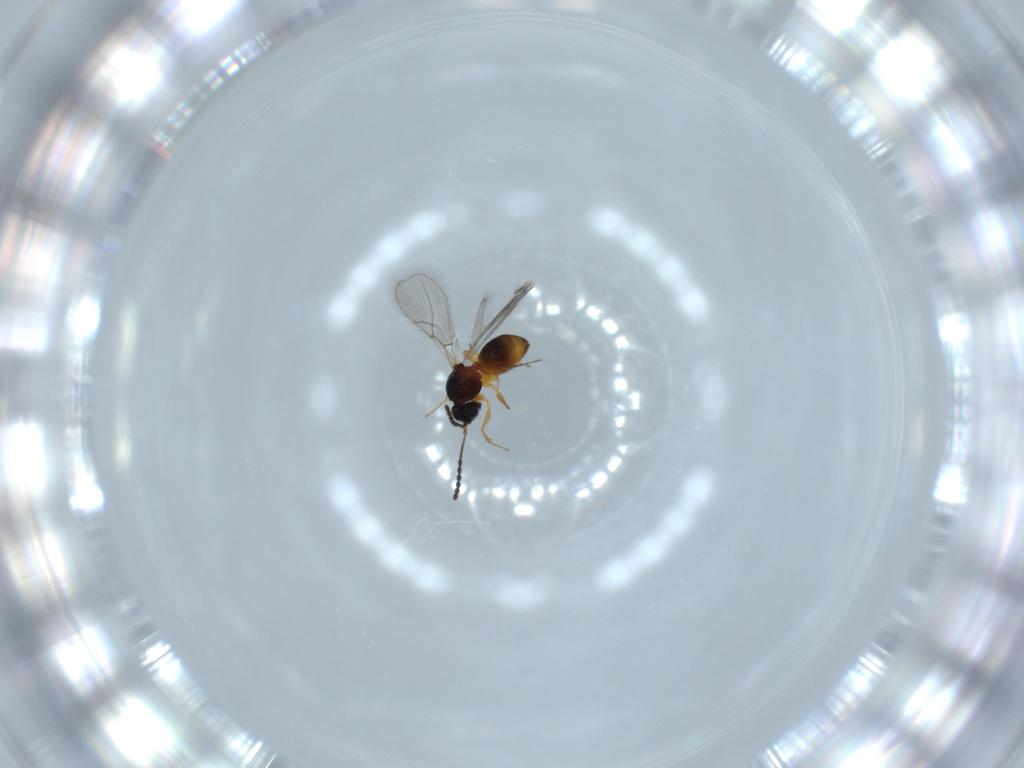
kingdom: Animalia
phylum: Arthropoda
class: Insecta
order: Hymenoptera
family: Figitidae
